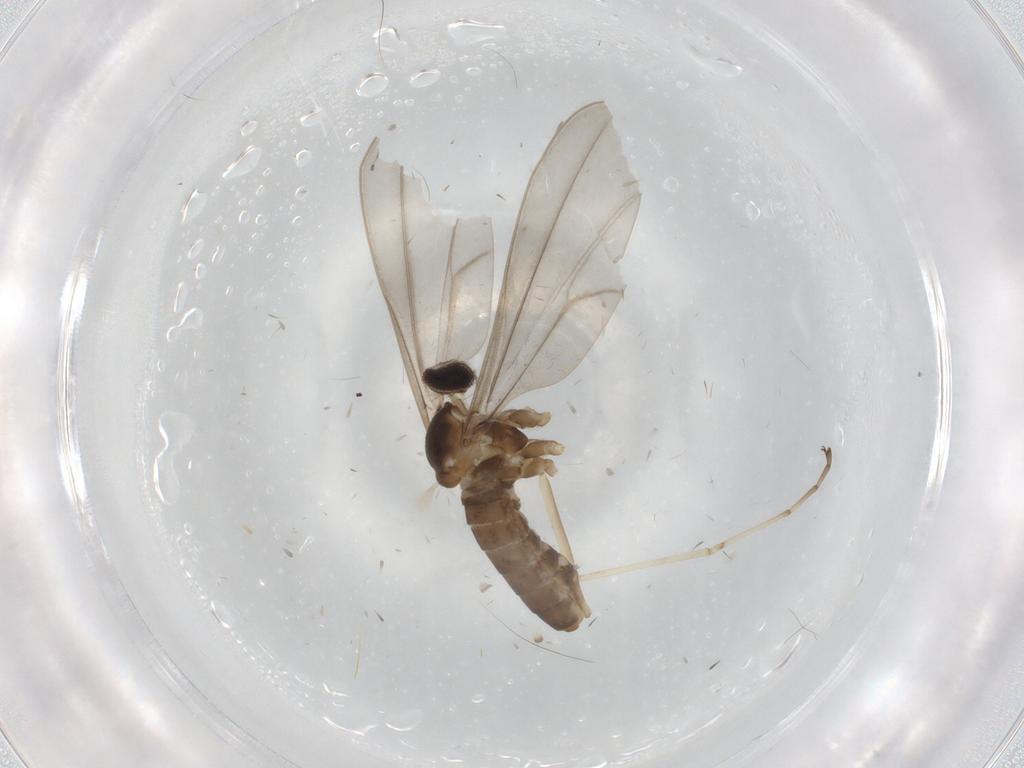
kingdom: Animalia
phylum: Arthropoda
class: Insecta
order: Diptera
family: Cecidomyiidae
